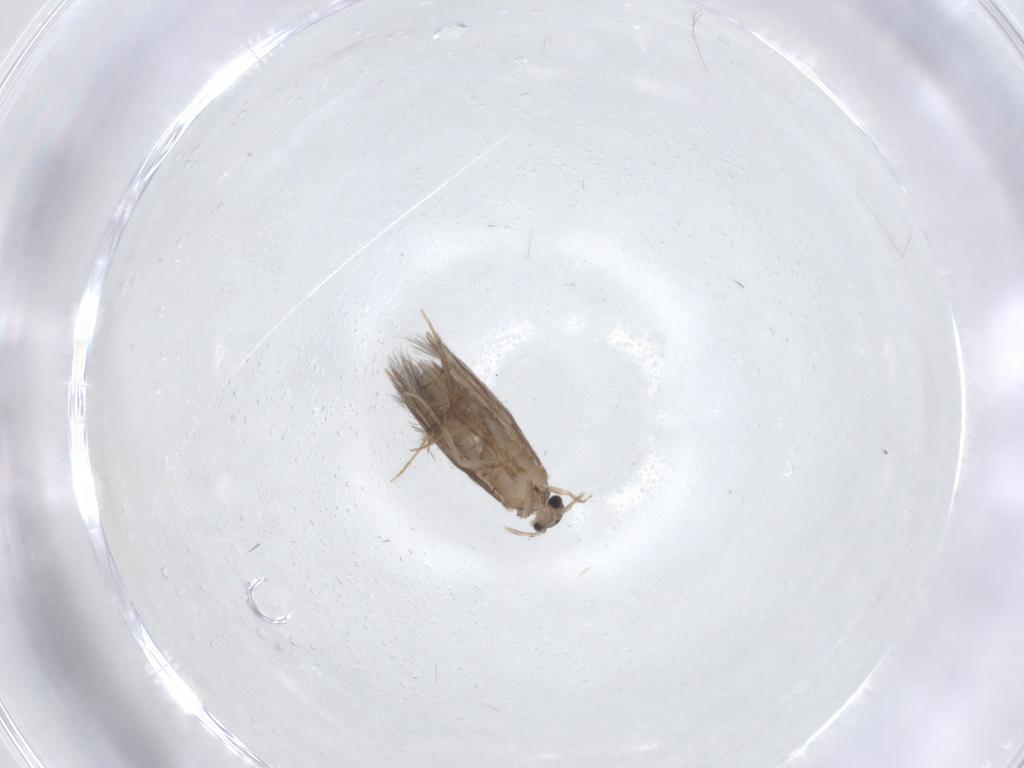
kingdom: Animalia
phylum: Arthropoda
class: Insecta
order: Trichoptera
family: Hydroptilidae
